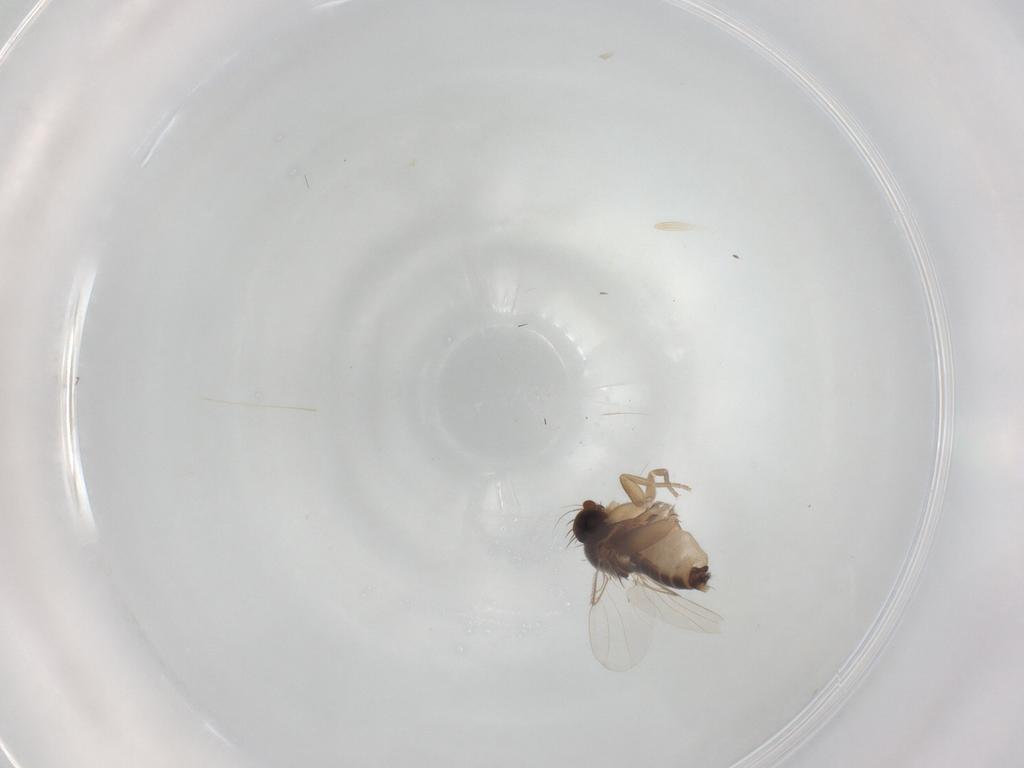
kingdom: Animalia
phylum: Arthropoda
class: Insecta
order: Diptera
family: Phoridae
